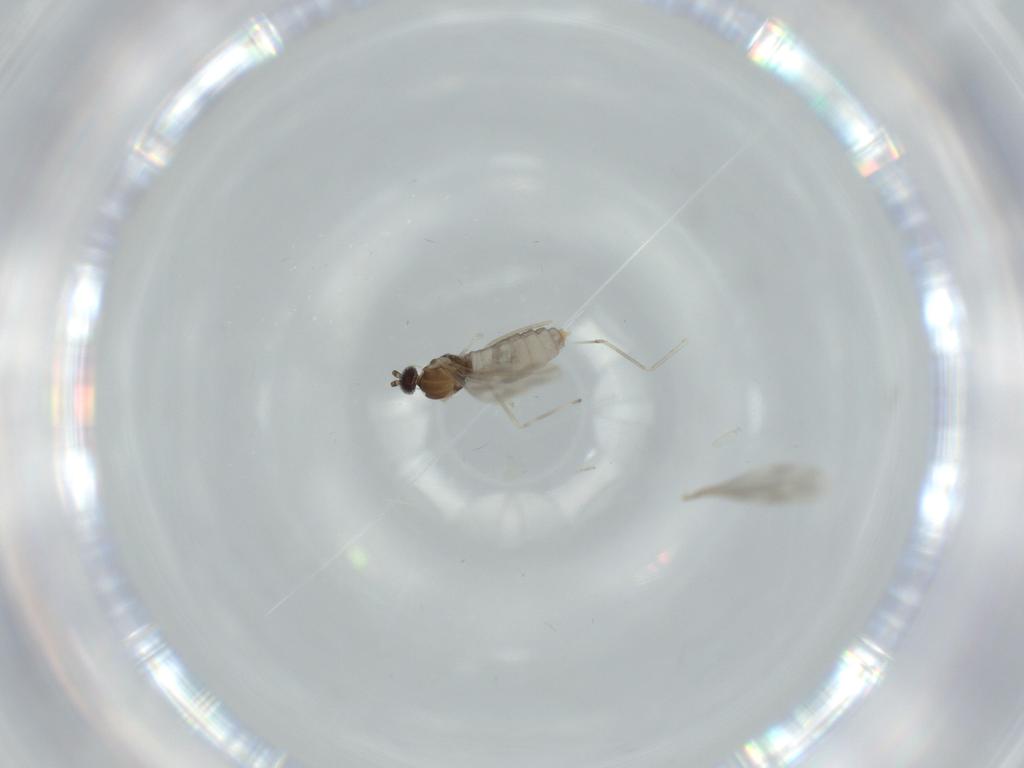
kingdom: Animalia
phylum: Arthropoda
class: Insecta
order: Diptera
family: Cecidomyiidae
